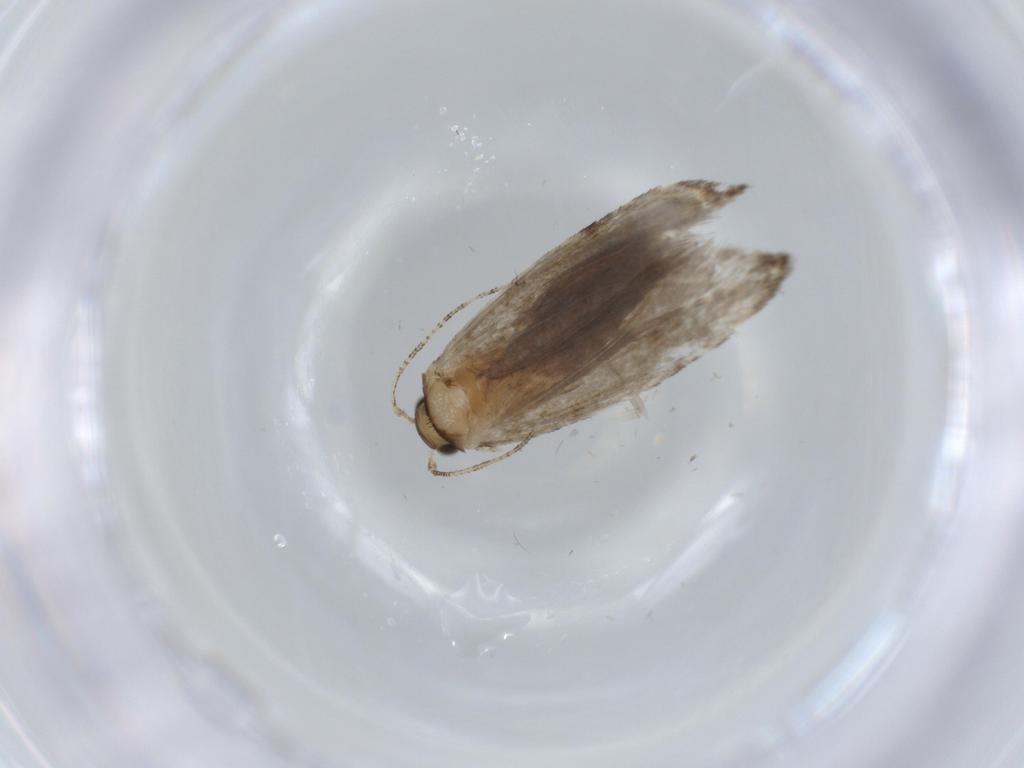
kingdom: Animalia
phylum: Arthropoda
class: Insecta
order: Lepidoptera
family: Tineidae
